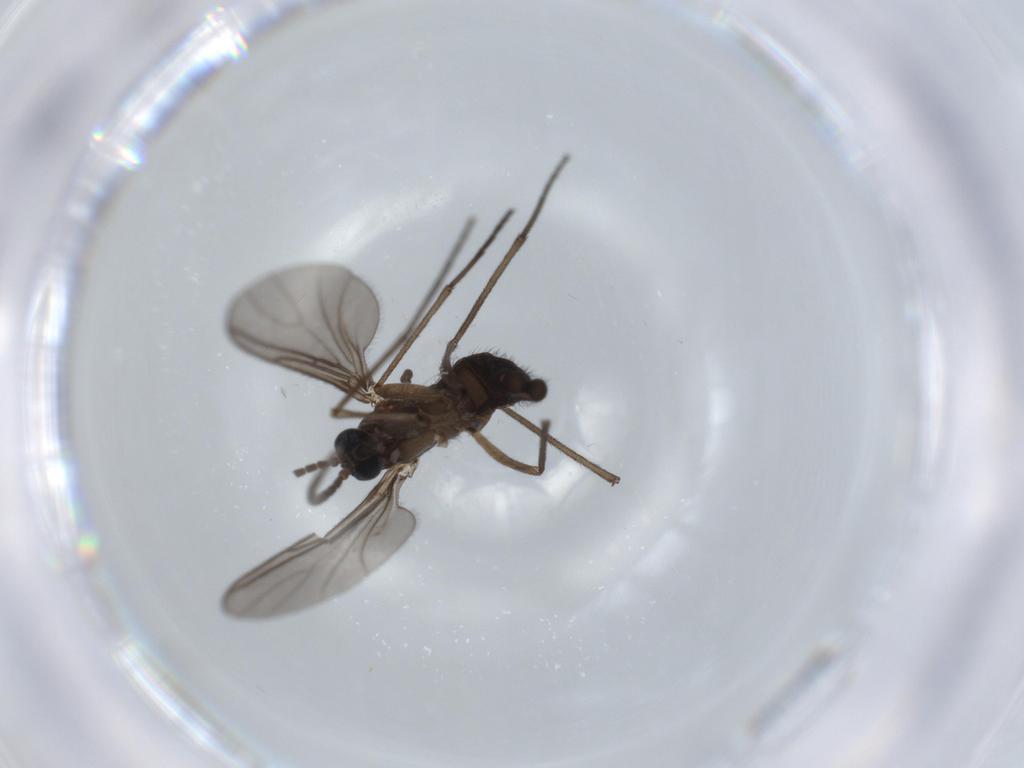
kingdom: Animalia
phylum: Arthropoda
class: Insecta
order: Diptera
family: Sciaridae
